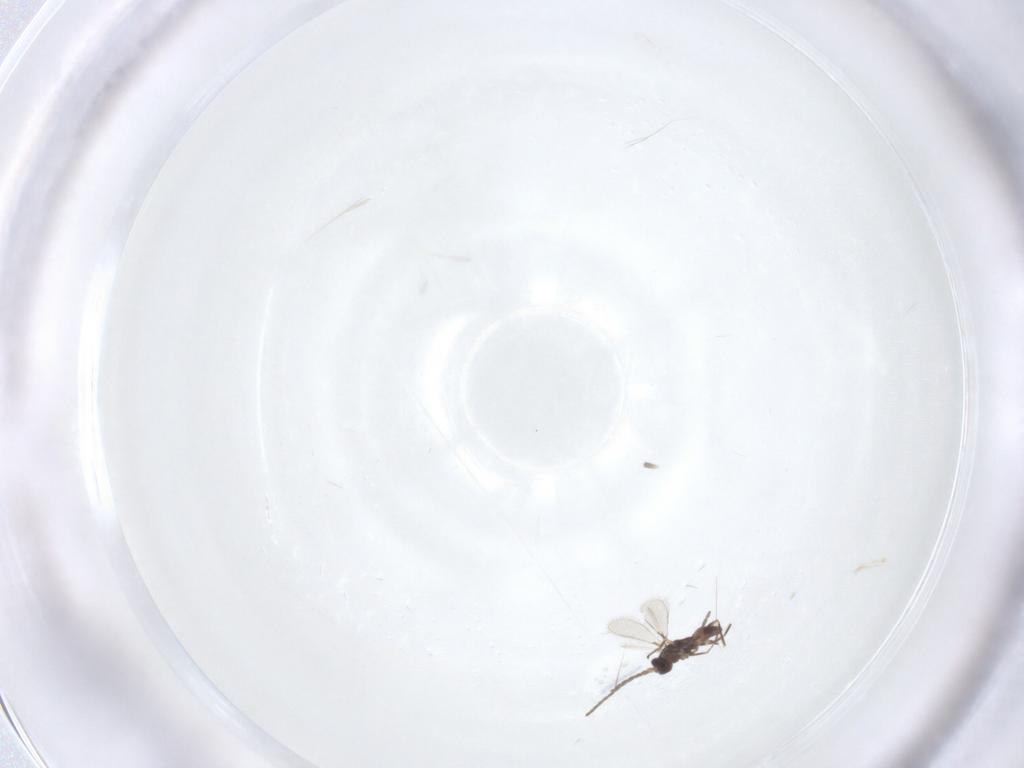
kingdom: Animalia
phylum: Arthropoda
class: Insecta
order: Hymenoptera
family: Mymaridae
